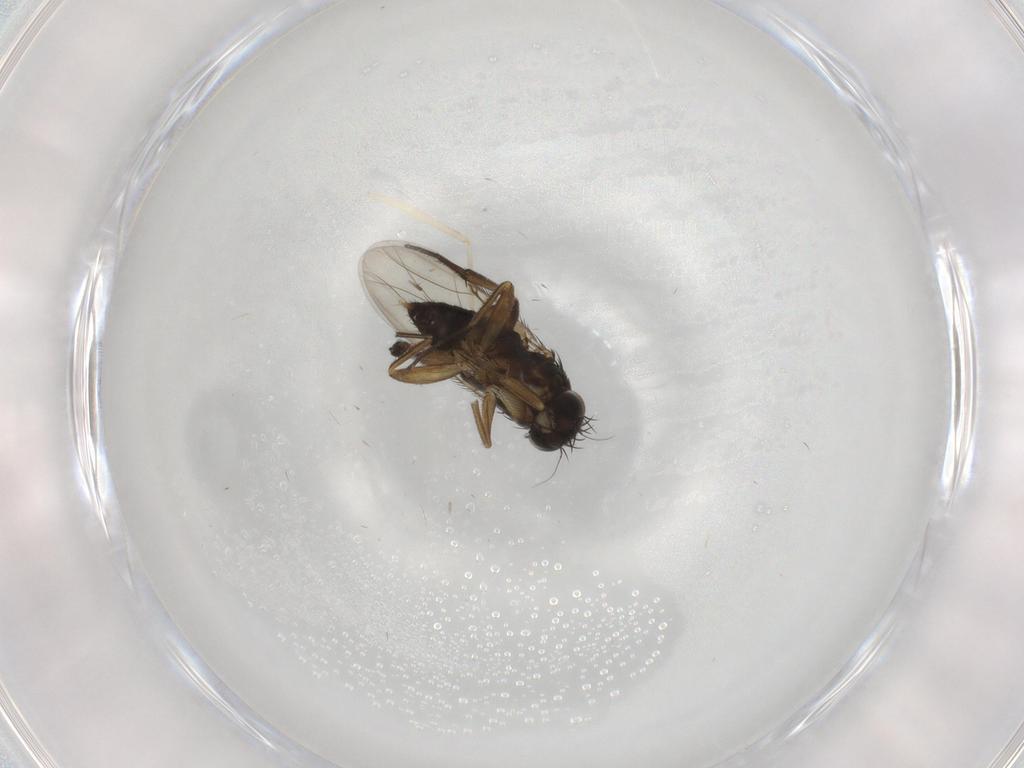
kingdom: Animalia
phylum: Arthropoda
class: Insecta
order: Diptera
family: Phoridae
